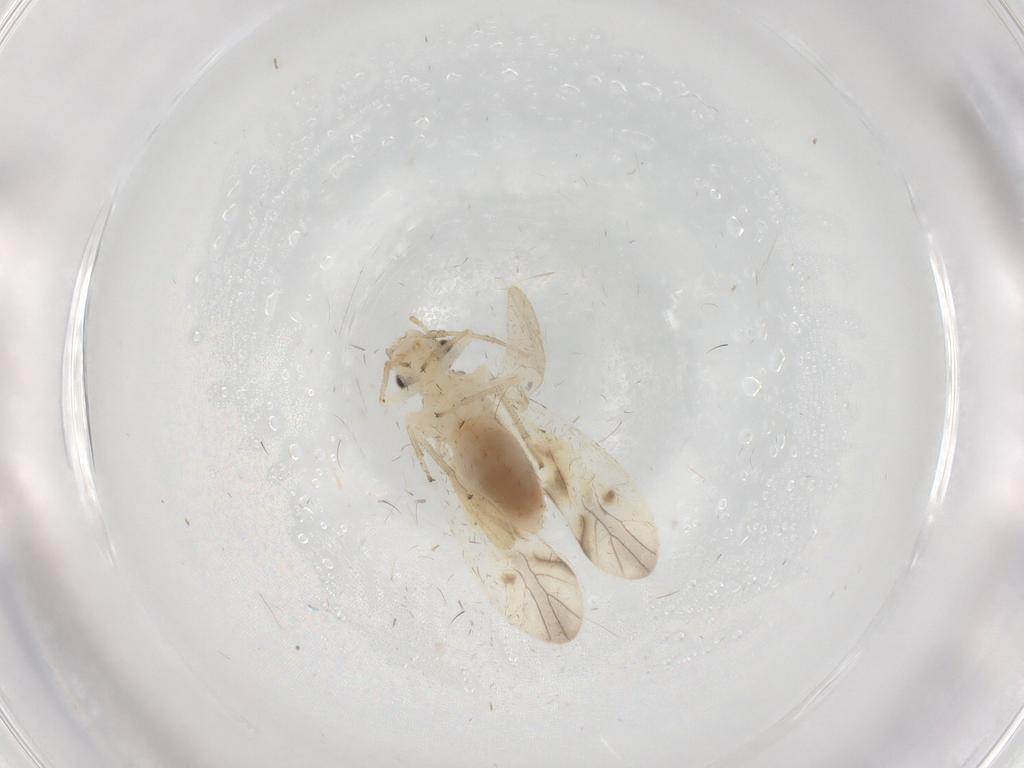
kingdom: Animalia
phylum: Arthropoda
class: Insecta
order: Psocodea
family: Caeciliusidae
